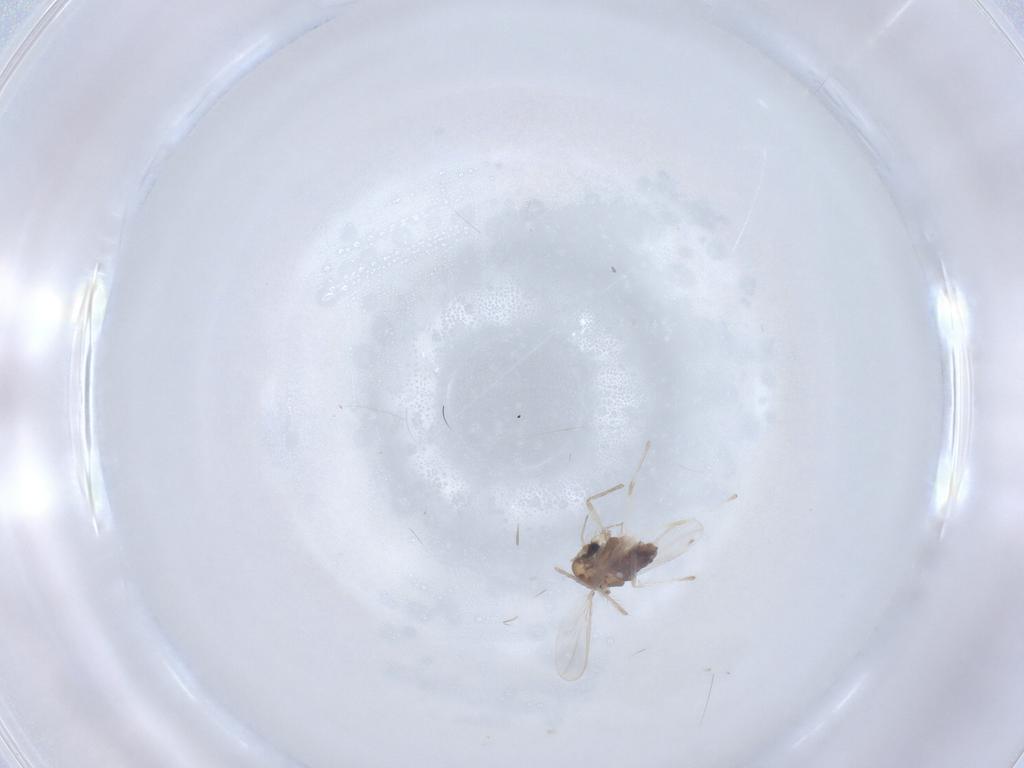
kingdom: Animalia
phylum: Arthropoda
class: Insecta
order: Diptera
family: Chironomidae
